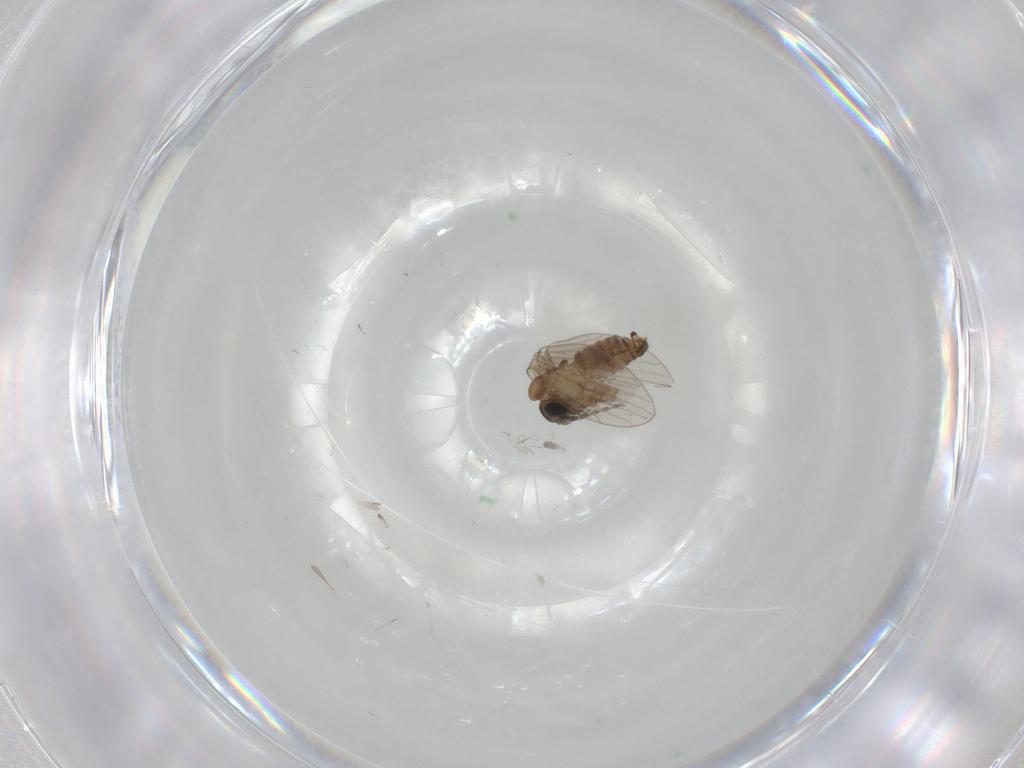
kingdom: Animalia
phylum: Arthropoda
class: Insecta
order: Diptera
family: Psychodidae
